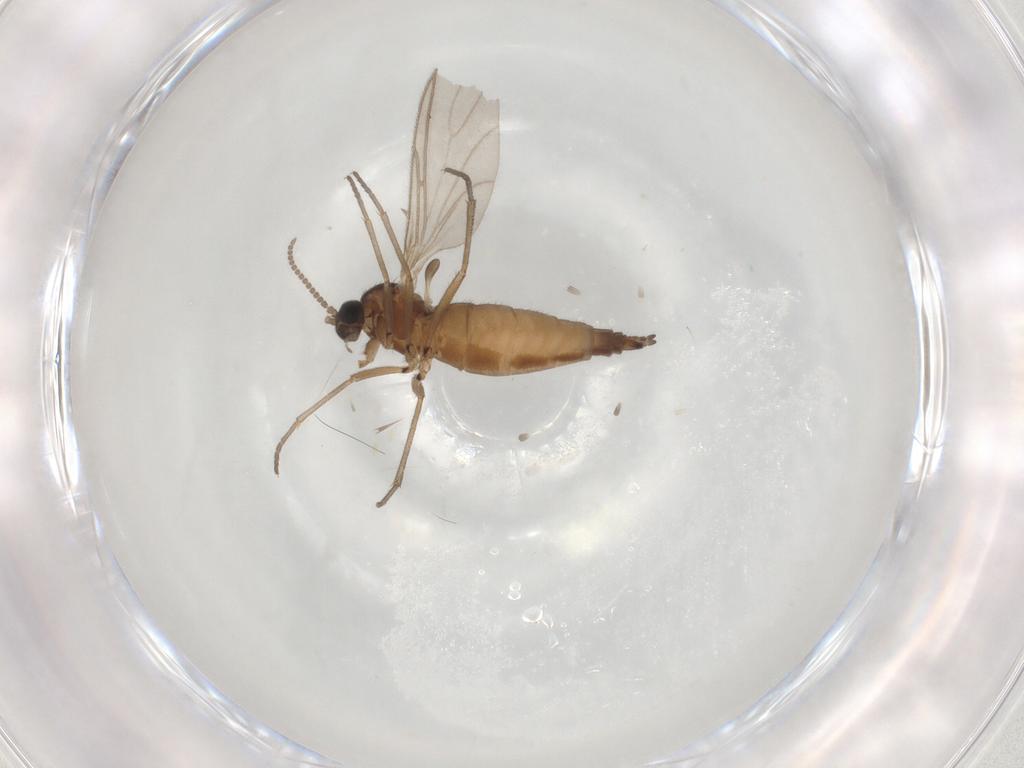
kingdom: Animalia
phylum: Arthropoda
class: Insecta
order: Diptera
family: Sciaridae
